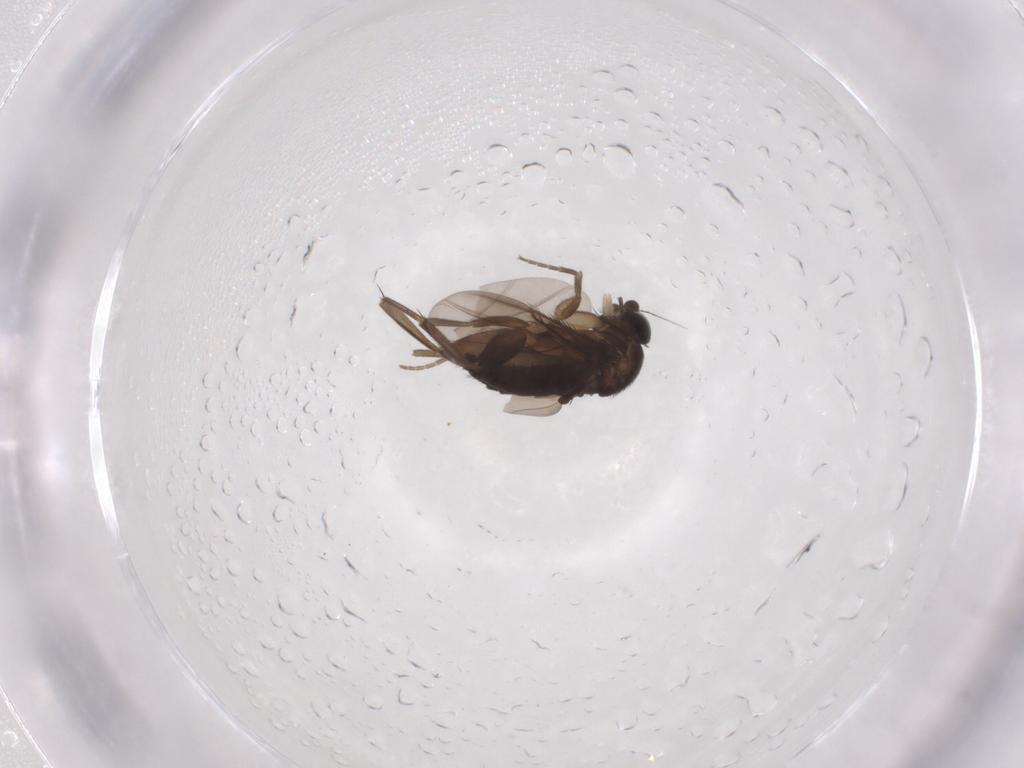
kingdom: Animalia
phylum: Arthropoda
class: Insecta
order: Diptera
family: Phoridae
